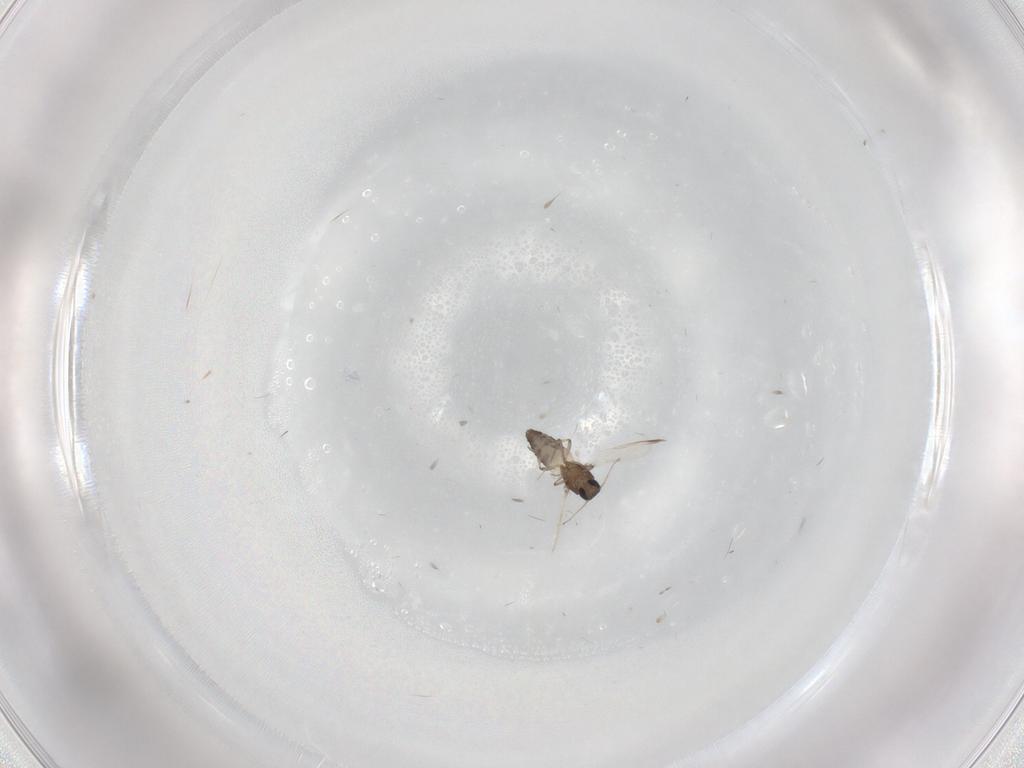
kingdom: Animalia
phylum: Arthropoda
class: Insecta
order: Diptera
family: Ceratopogonidae
